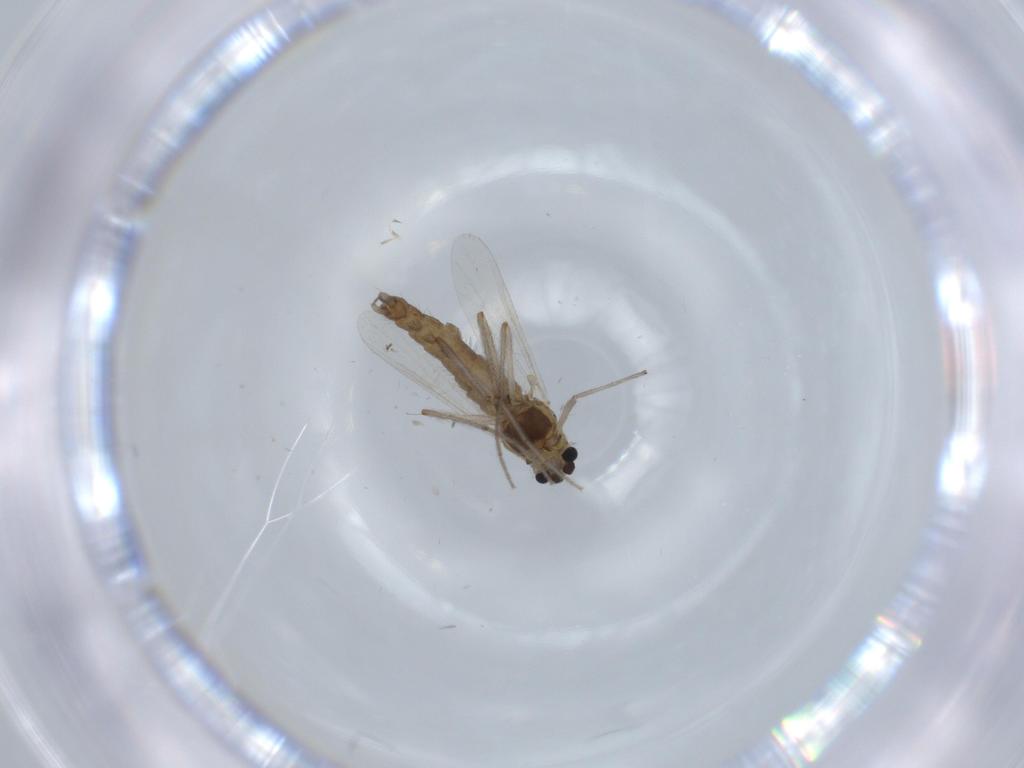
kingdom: Animalia
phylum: Arthropoda
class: Insecta
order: Diptera
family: Chironomidae
